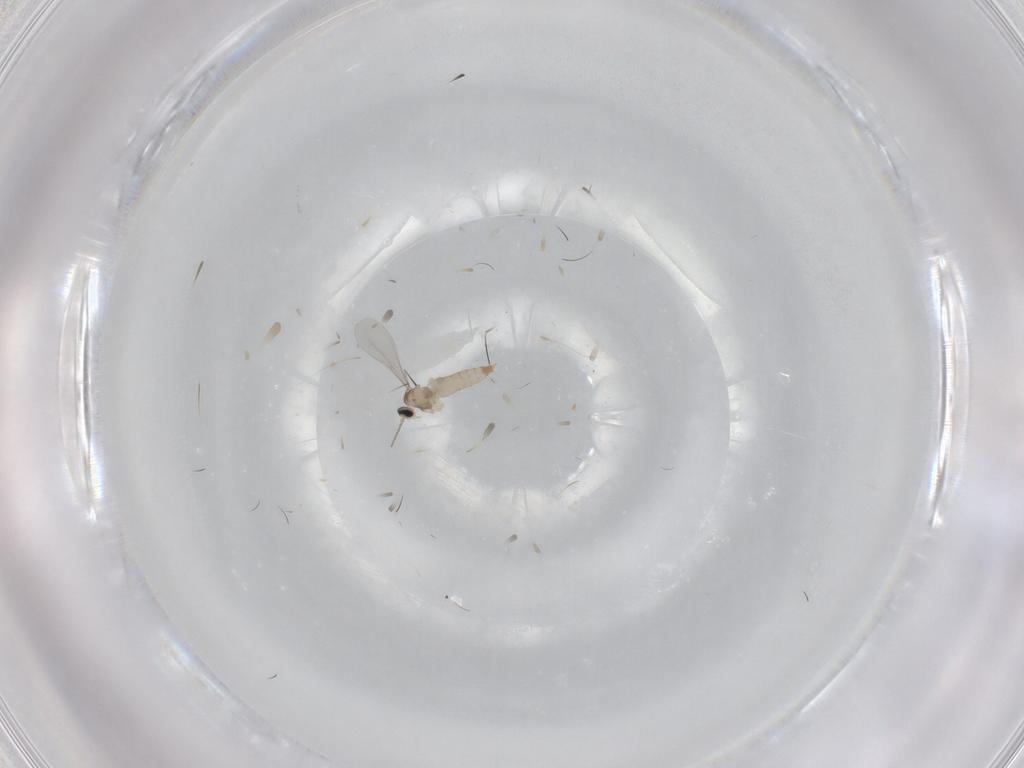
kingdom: Animalia
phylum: Arthropoda
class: Insecta
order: Diptera
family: Cecidomyiidae
